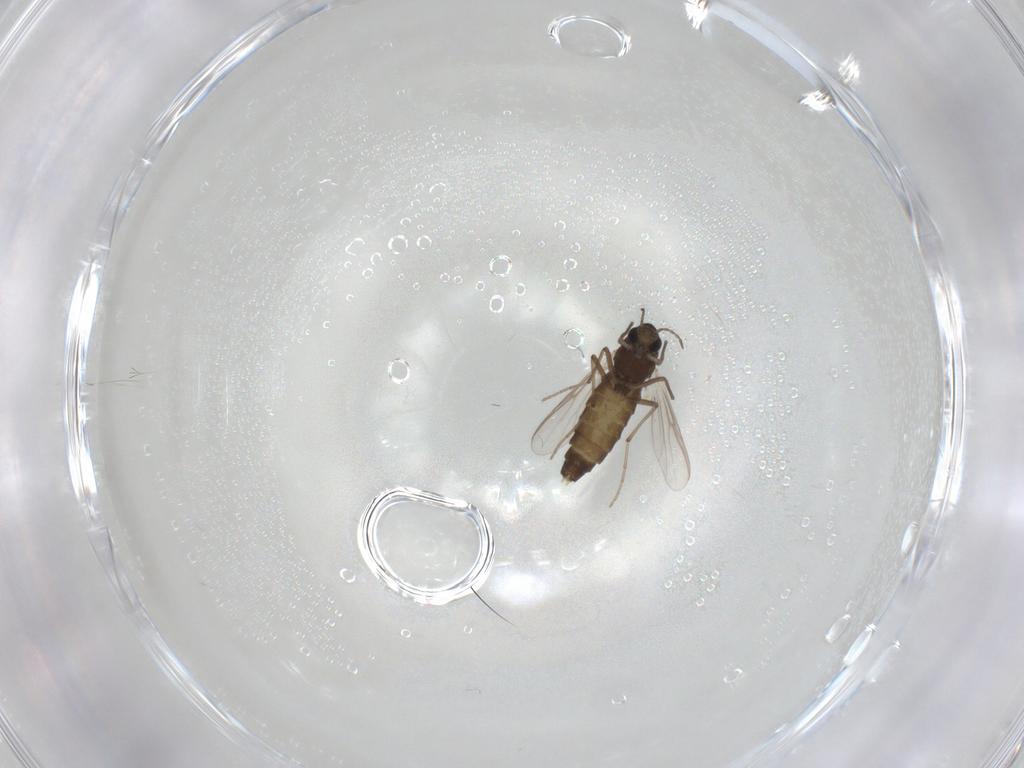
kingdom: Animalia
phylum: Arthropoda
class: Insecta
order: Diptera
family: Chironomidae
